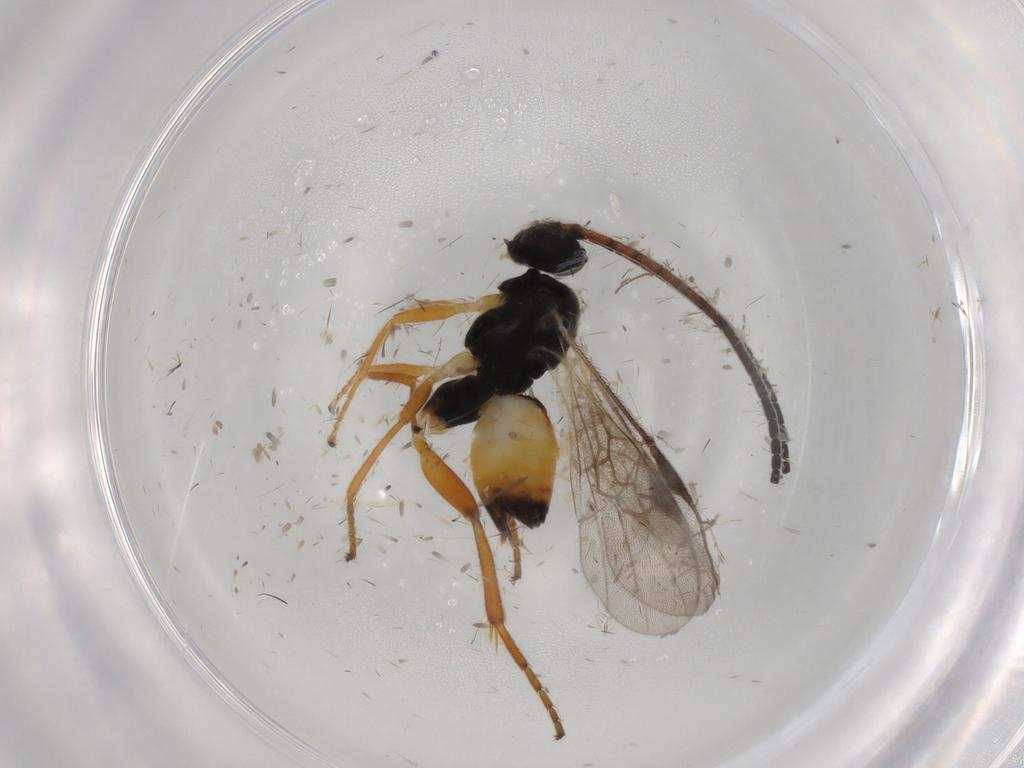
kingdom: Animalia
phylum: Arthropoda
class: Insecta
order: Hymenoptera
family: Braconidae
